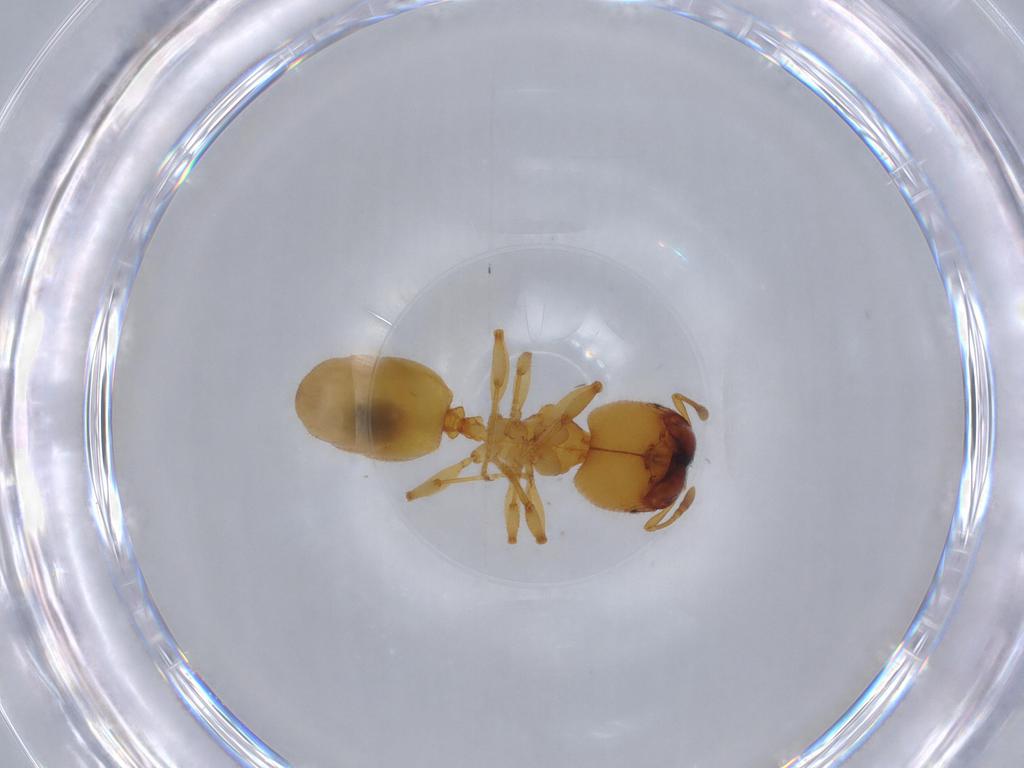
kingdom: Animalia
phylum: Arthropoda
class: Insecta
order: Hymenoptera
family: Formicidae
